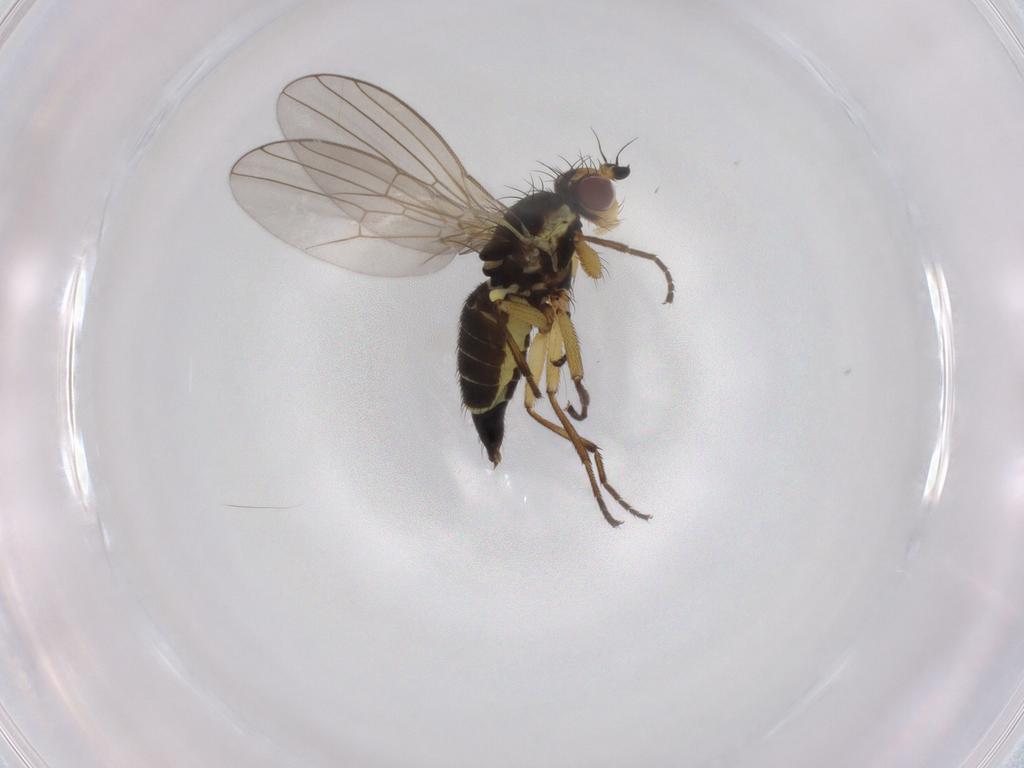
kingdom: Animalia
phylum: Arthropoda
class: Insecta
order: Diptera
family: Agromyzidae
